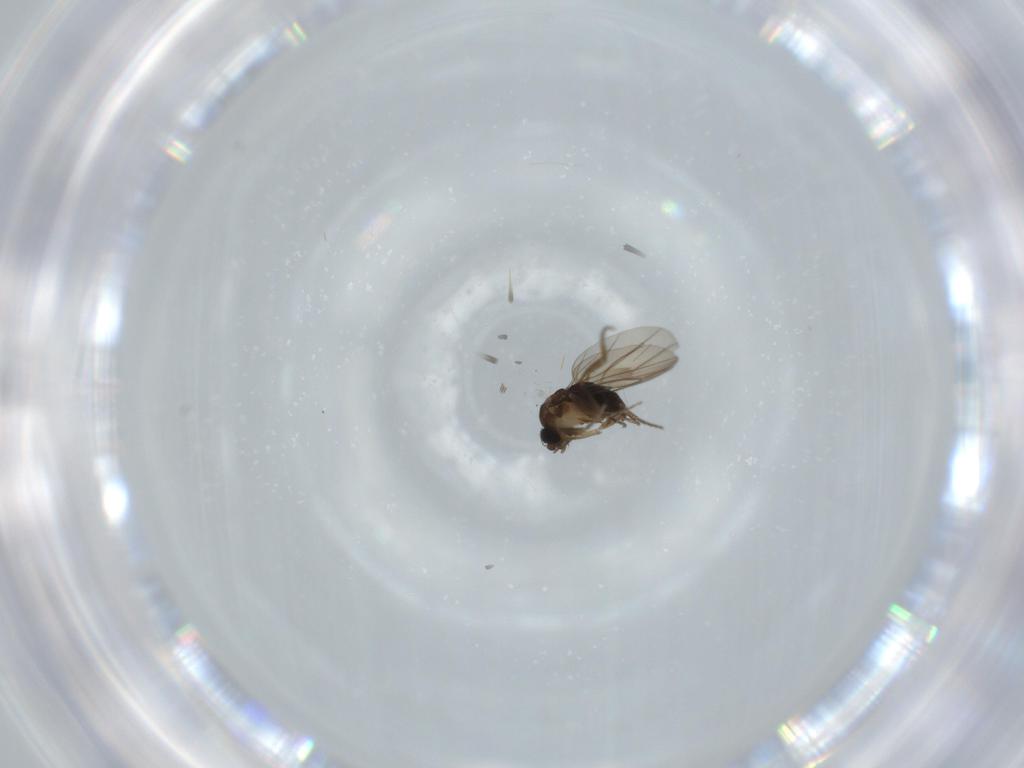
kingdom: Animalia
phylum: Arthropoda
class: Insecta
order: Diptera
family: Phoridae
